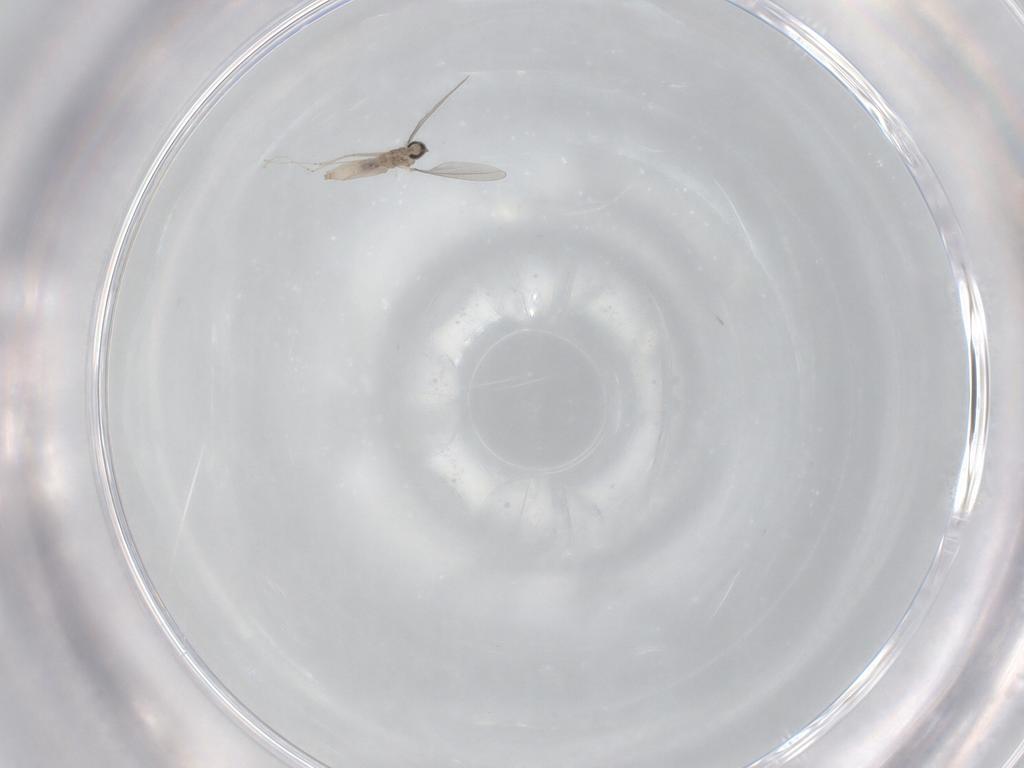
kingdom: Animalia
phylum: Arthropoda
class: Insecta
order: Diptera
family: Cecidomyiidae
